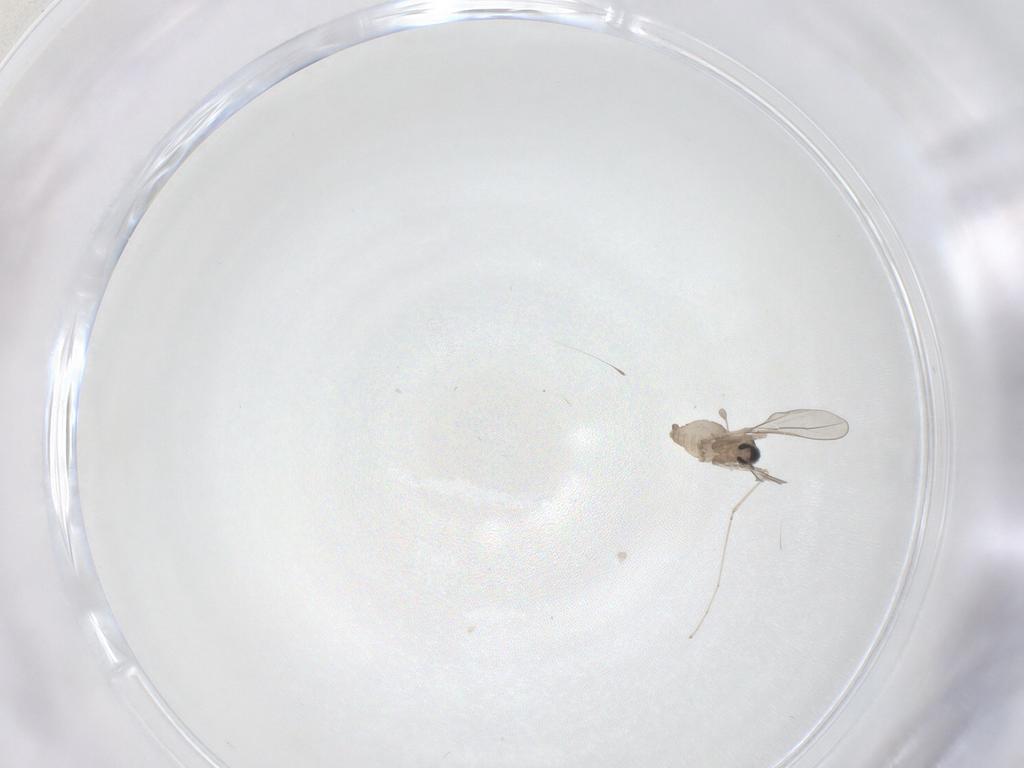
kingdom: Animalia
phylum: Arthropoda
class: Insecta
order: Diptera
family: Cecidomyiidae
